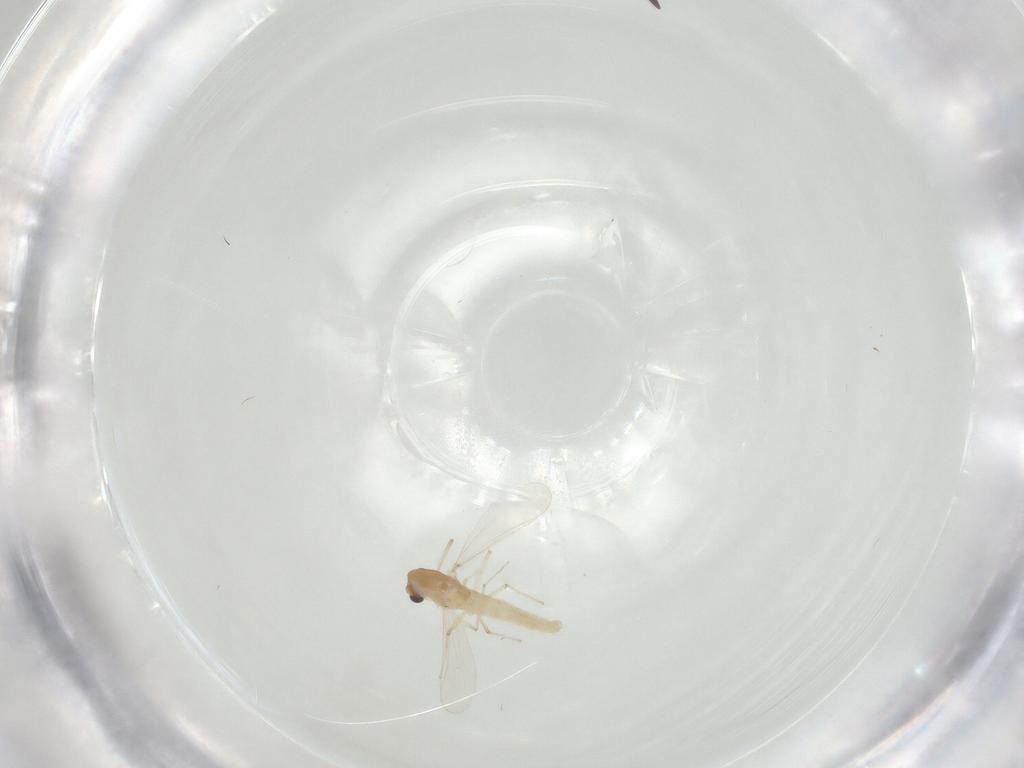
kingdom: Animalia
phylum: Arthropoda
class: Insecta
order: Diptera
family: Chironomidae
